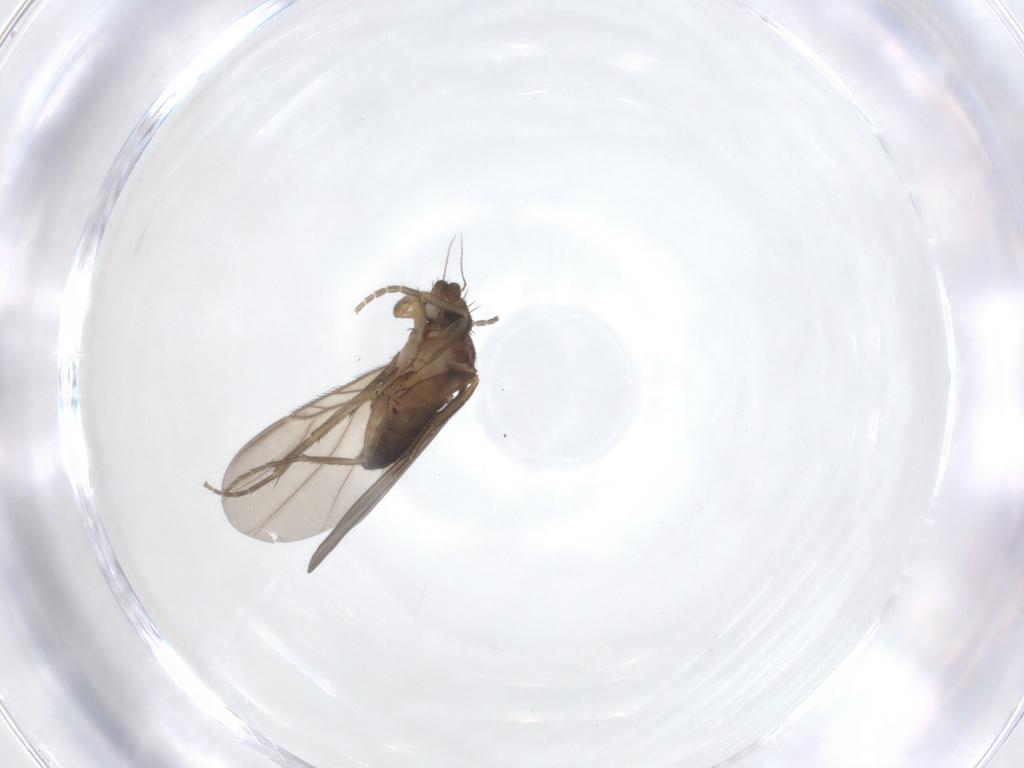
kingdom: Animalia
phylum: Arthropoda
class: Insecta
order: Diptera
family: Phoridae
